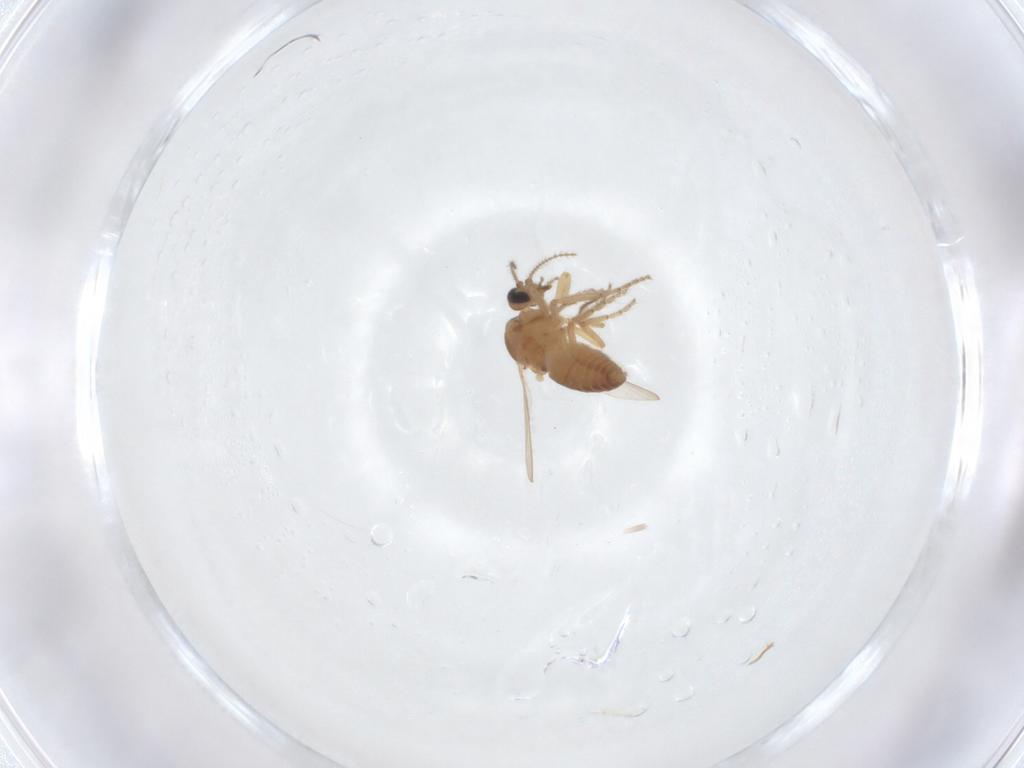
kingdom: Animalia
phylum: Arthropoda
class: Insecta
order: Diptera
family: Ceratopogonidae
